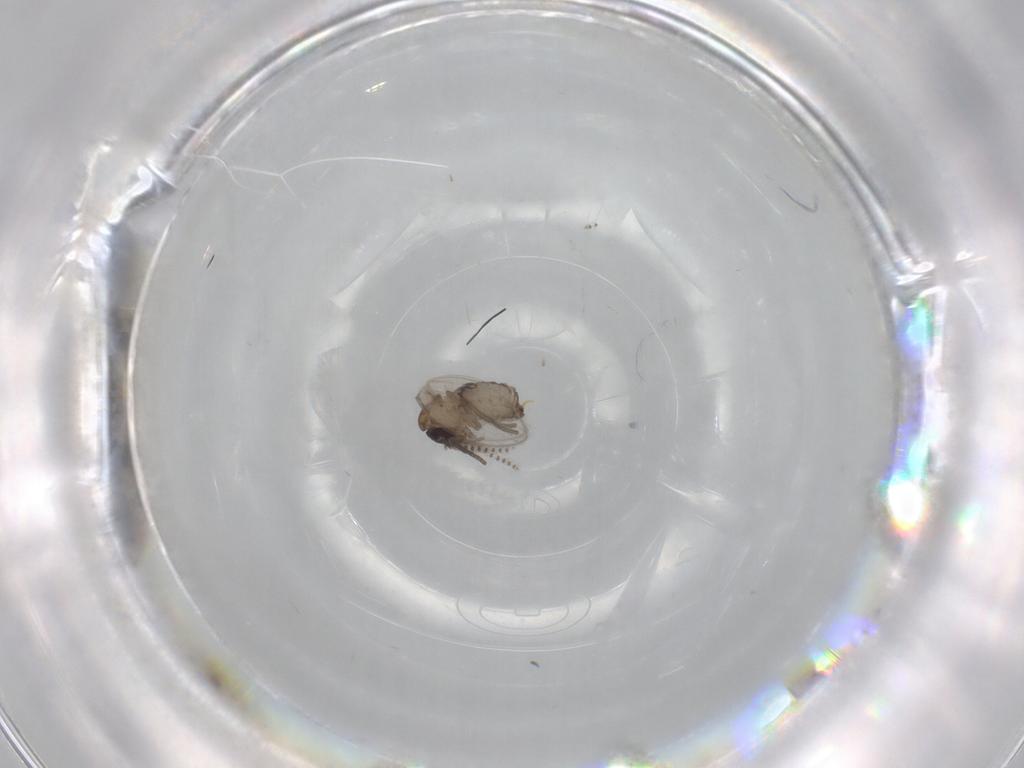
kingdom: Animalia
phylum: Arthropoda
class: Insecta
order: Diptera
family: Psychodidae
